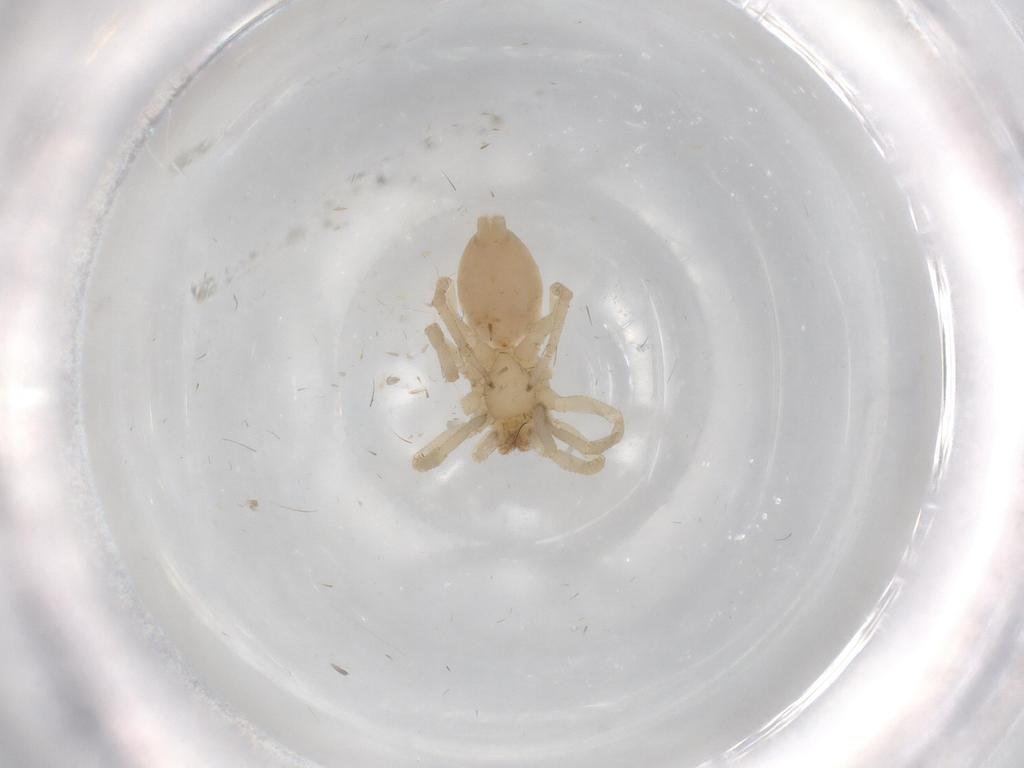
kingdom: Animalia
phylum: Arthropoda
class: Arachnida
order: Araneae
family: Clubionidae
